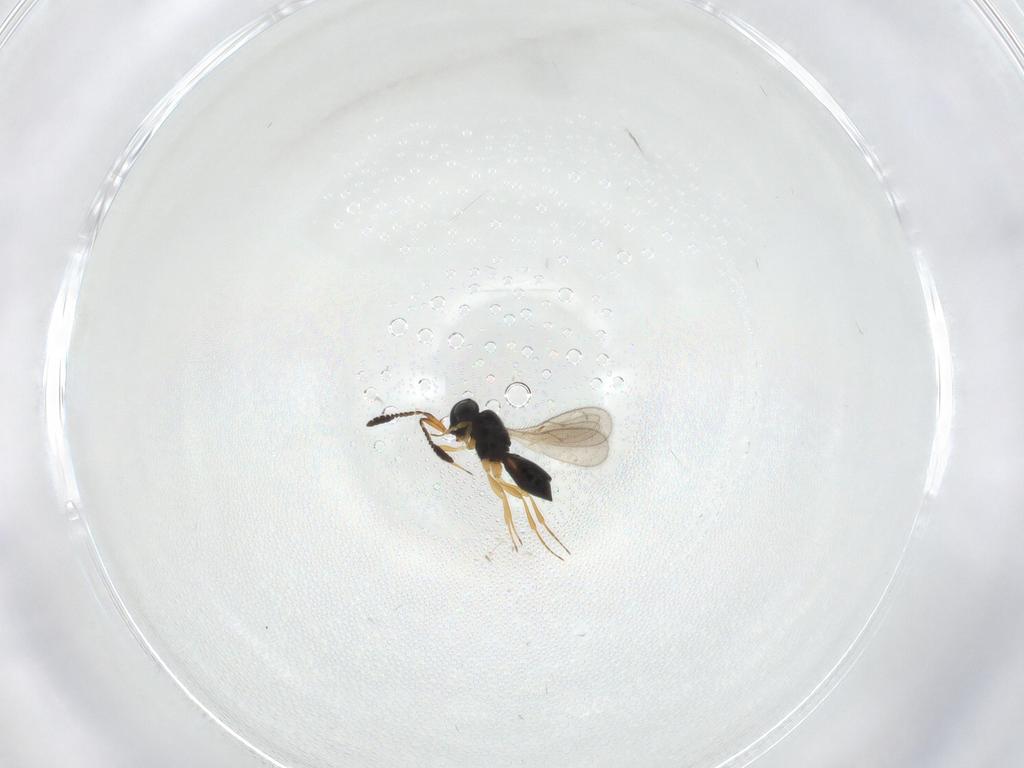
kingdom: Animalia
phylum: Arthropoda
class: Insecta
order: Hymenoptera
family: Scelionidae
